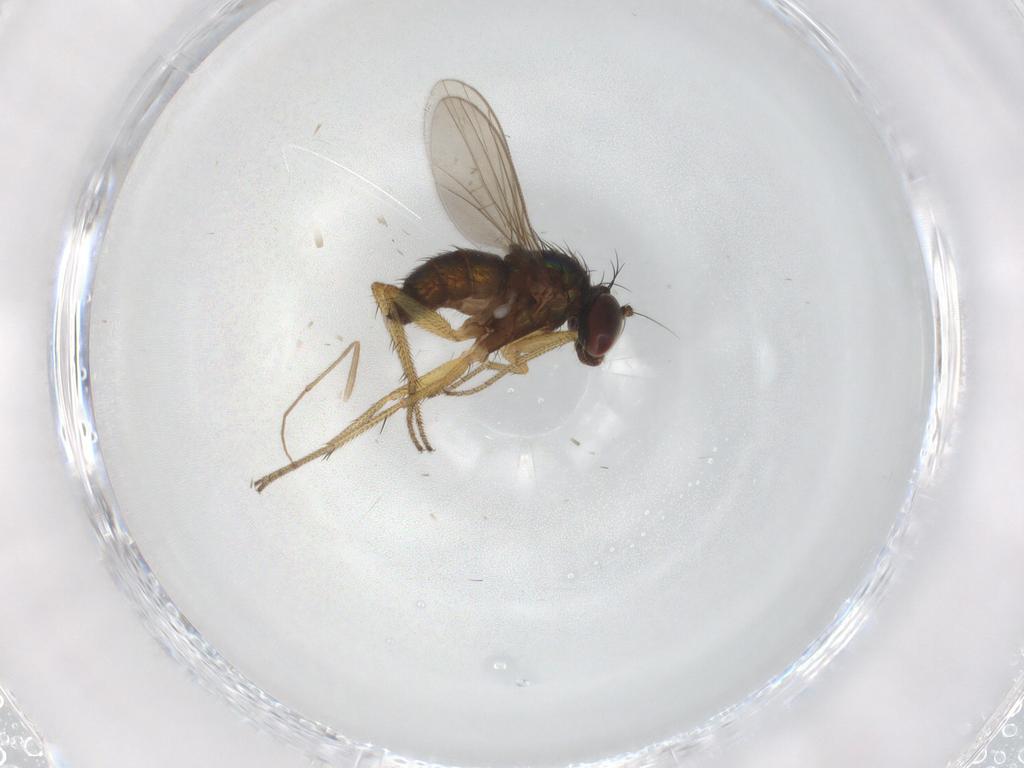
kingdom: Animalia
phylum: Arthropoda
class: Insecta
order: Diptera
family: Dolichopodidae
